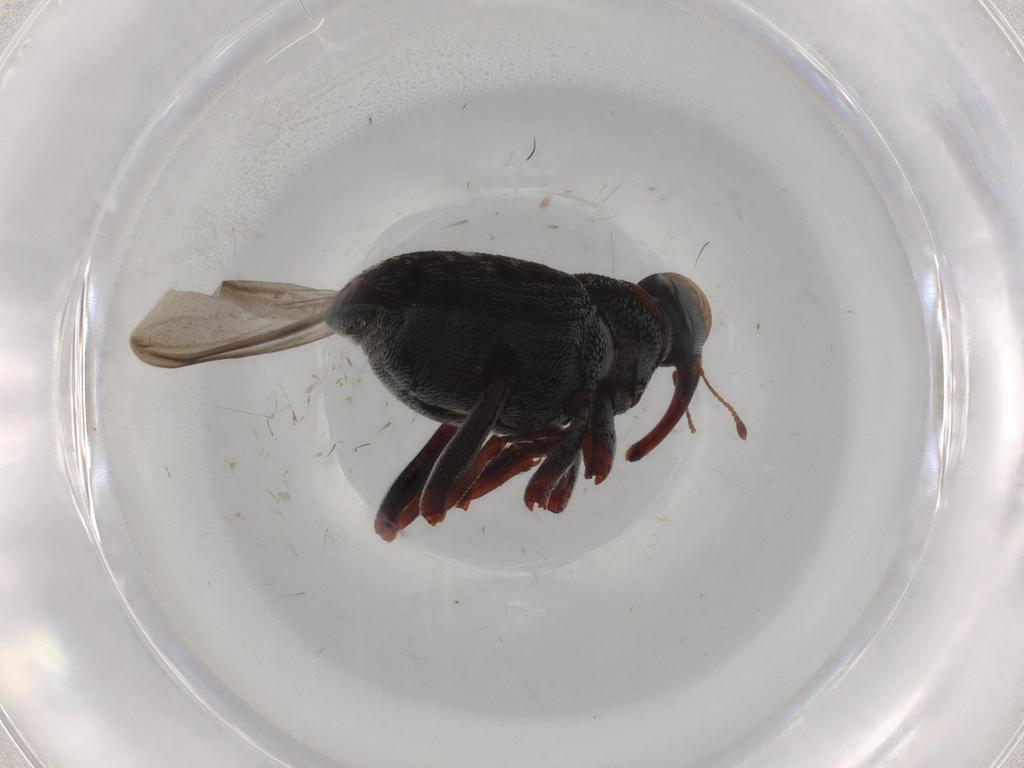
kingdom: Animalia
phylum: Arthropoda
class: Insecta
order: Coleoptera
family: Curculionidae
